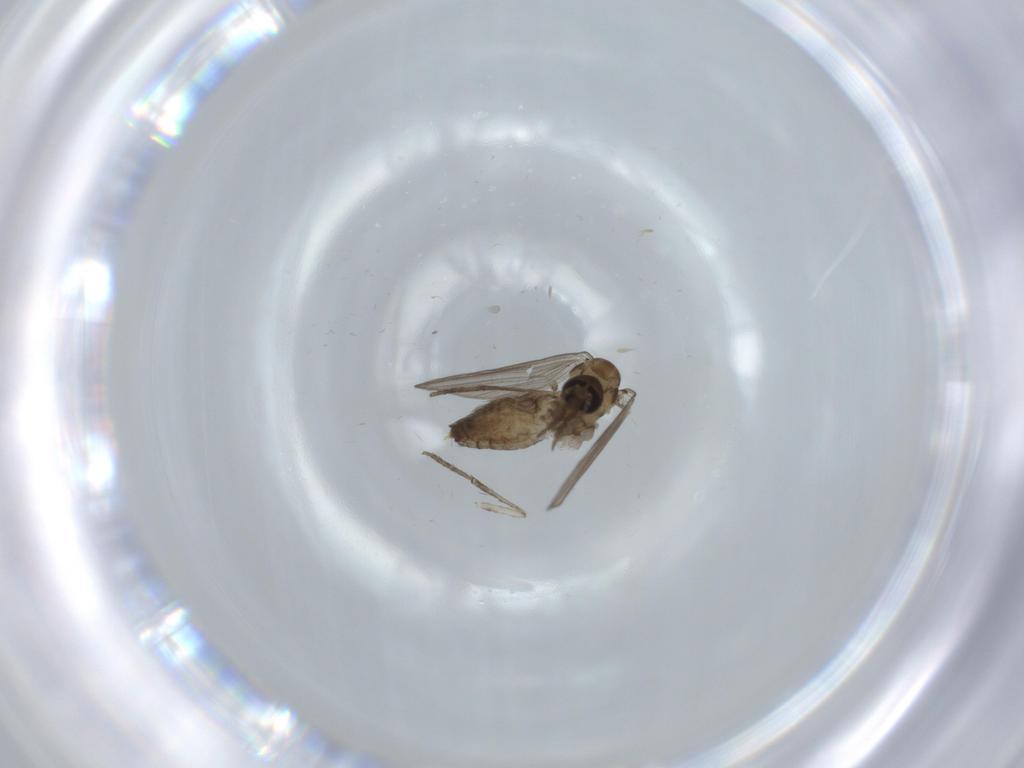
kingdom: Animalia
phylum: Arthropoda
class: Insecta
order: Diptera
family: Psychodidae
